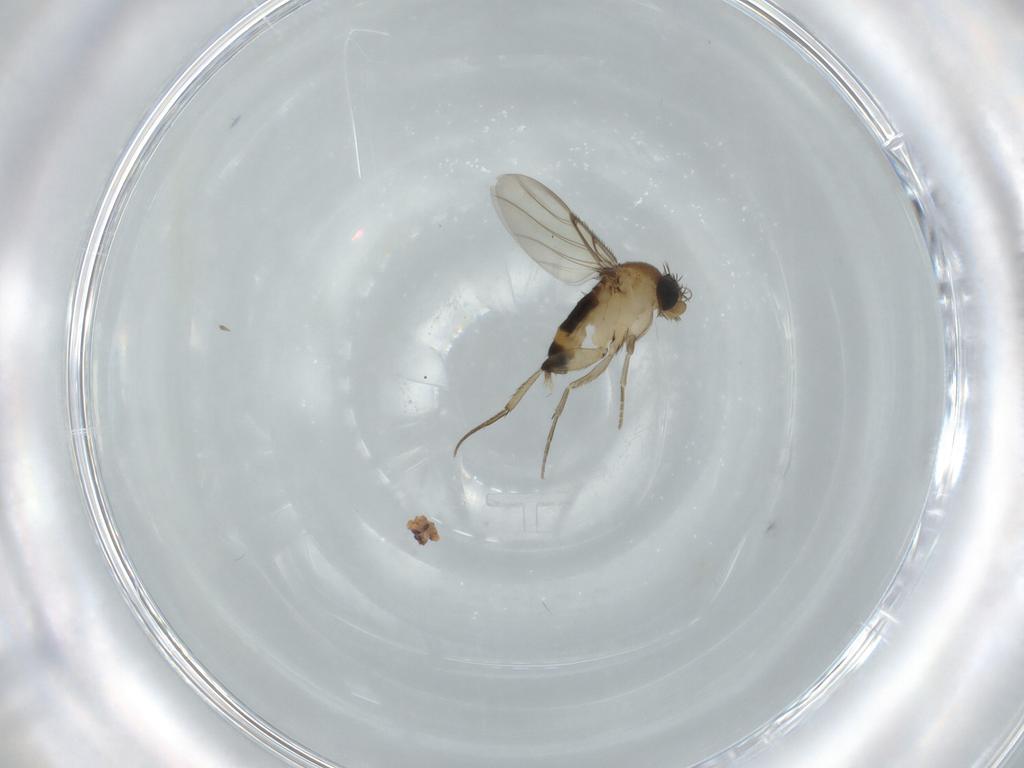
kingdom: Animalia
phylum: Arthropoda
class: Insecta
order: Diptera
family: Phoridae
